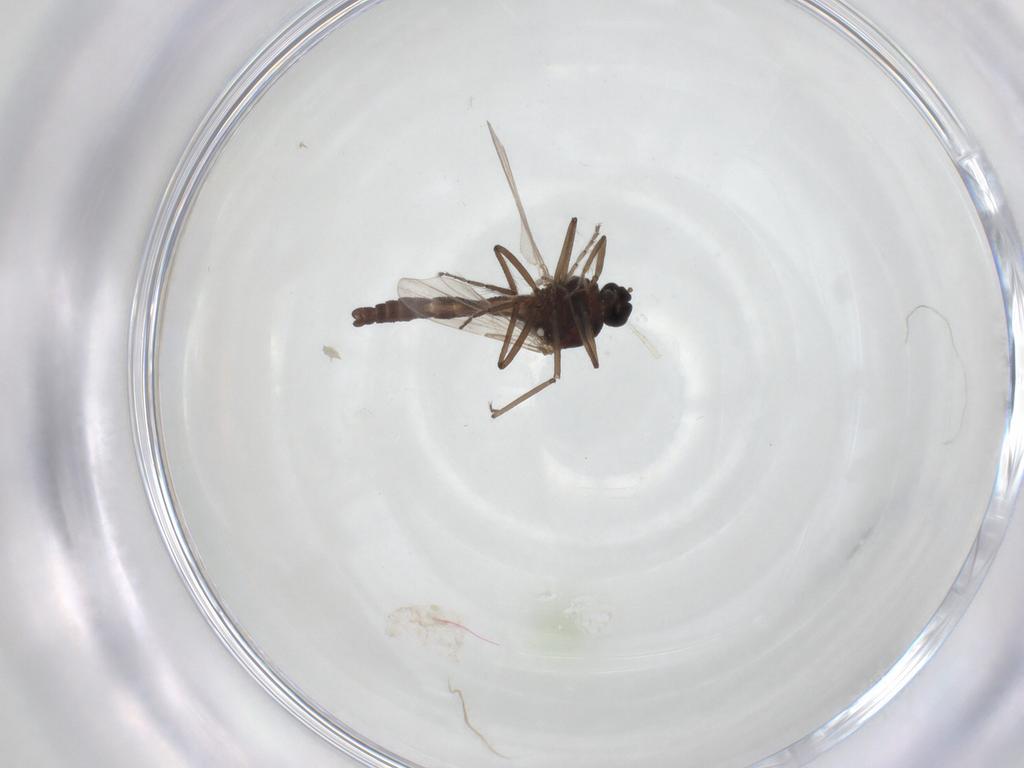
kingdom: Animalia
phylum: Arthropoda
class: Insecta
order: Diptera
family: Ceratopogonidae
